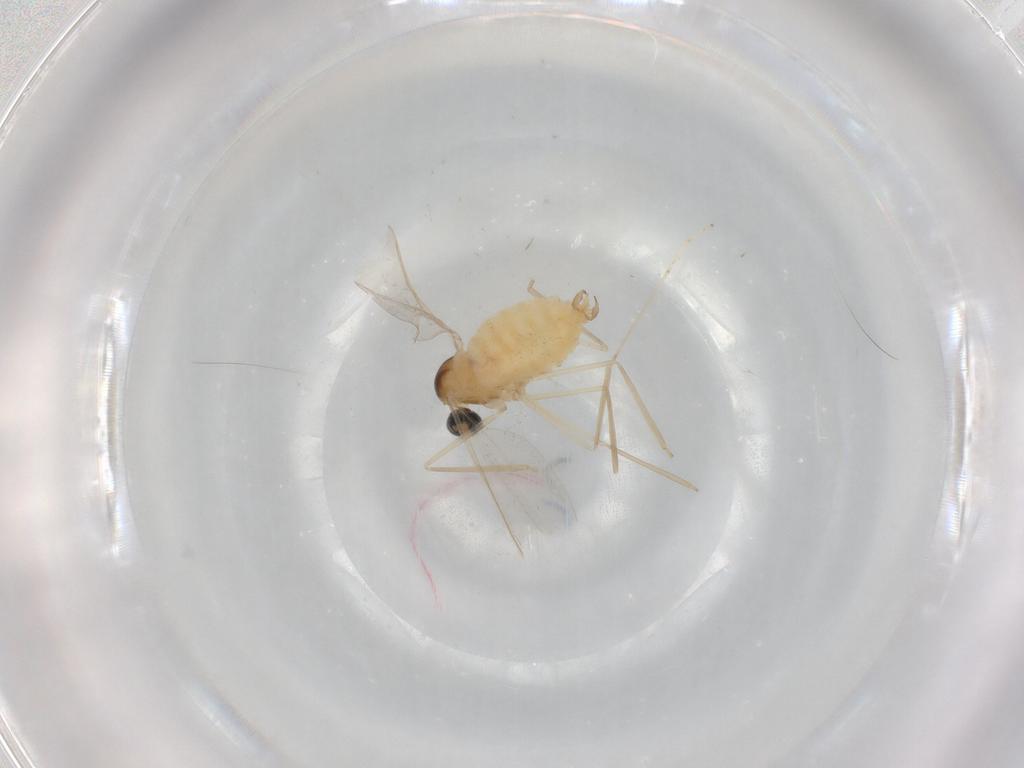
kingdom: Animalia
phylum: Arthropoda
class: Insecta
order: Diptera
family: Cecidomyiidae
